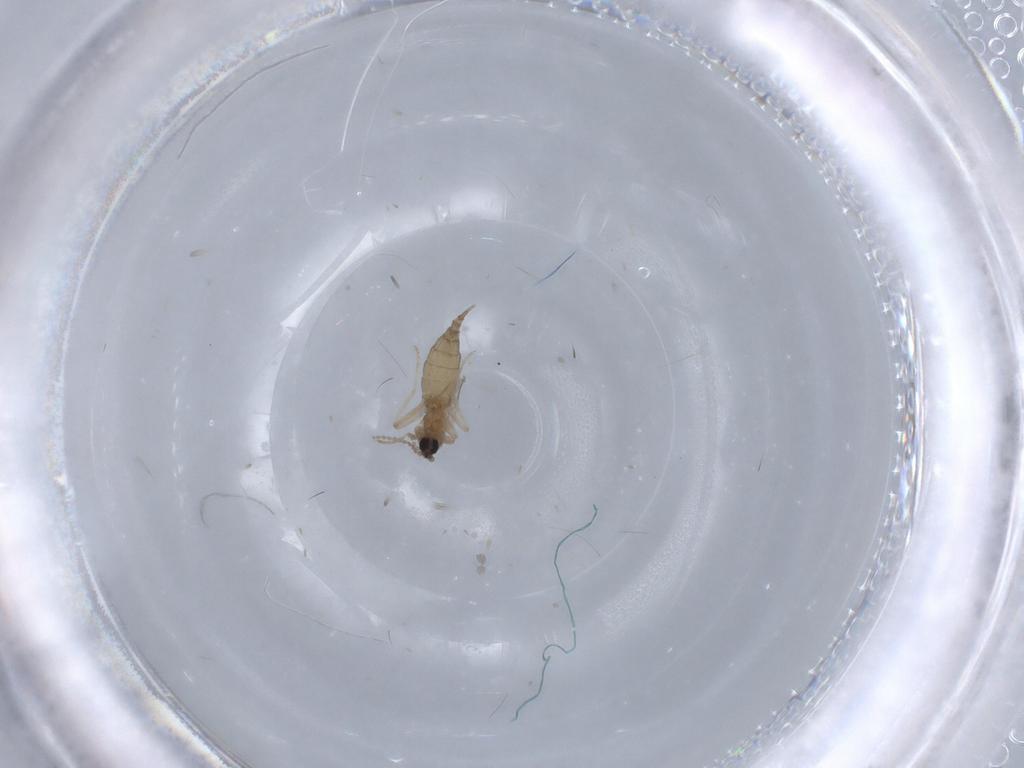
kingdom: Animalia
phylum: Arthropoda
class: Insecta
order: Diptera
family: Cecidomyiidae
